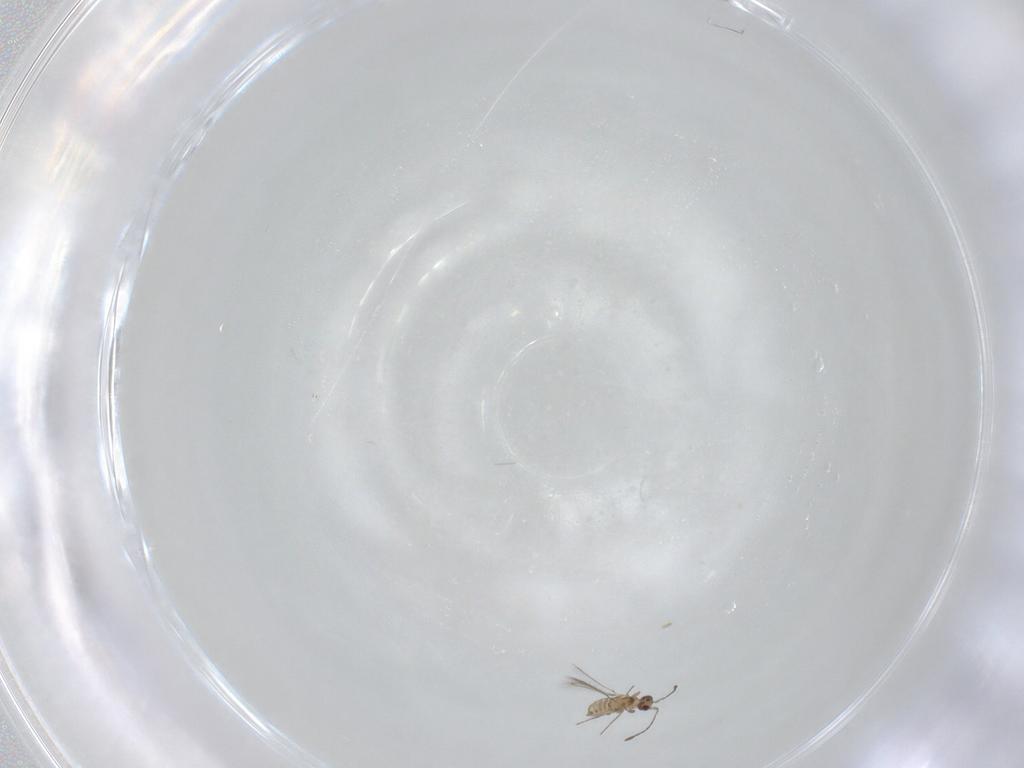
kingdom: Animalia
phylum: Arthropoda
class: Insecta
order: Hymenoptera
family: Mymaridae
